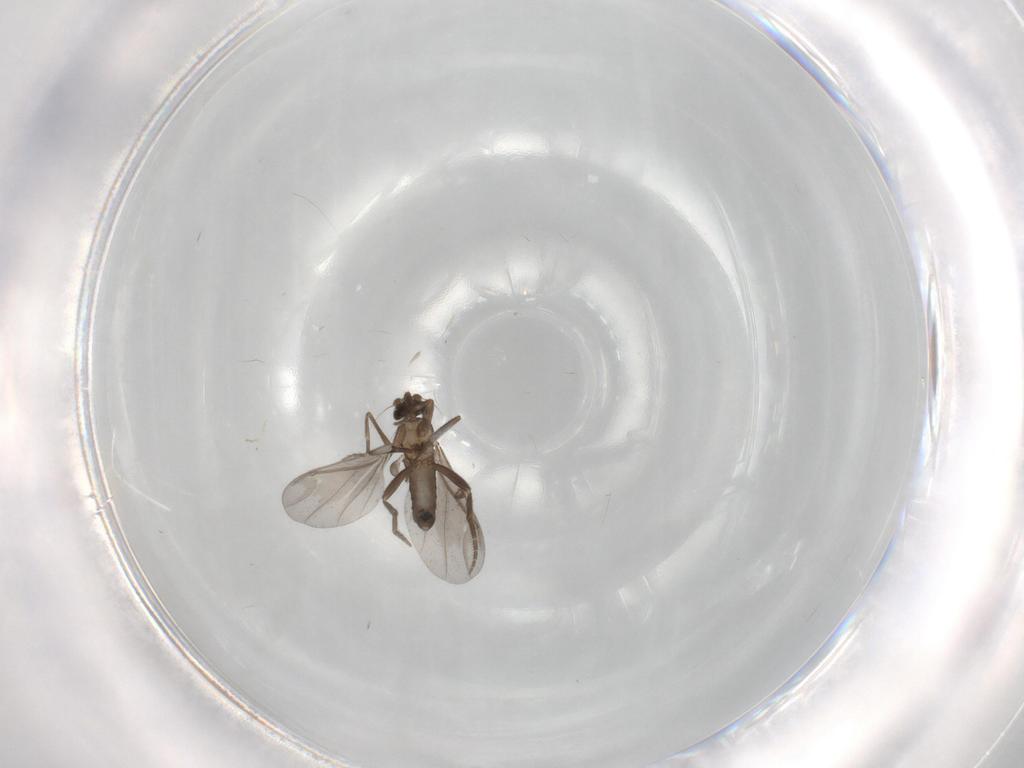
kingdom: Animalia
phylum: Arthropoda
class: Insecta
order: Diptera
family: Phoridae
